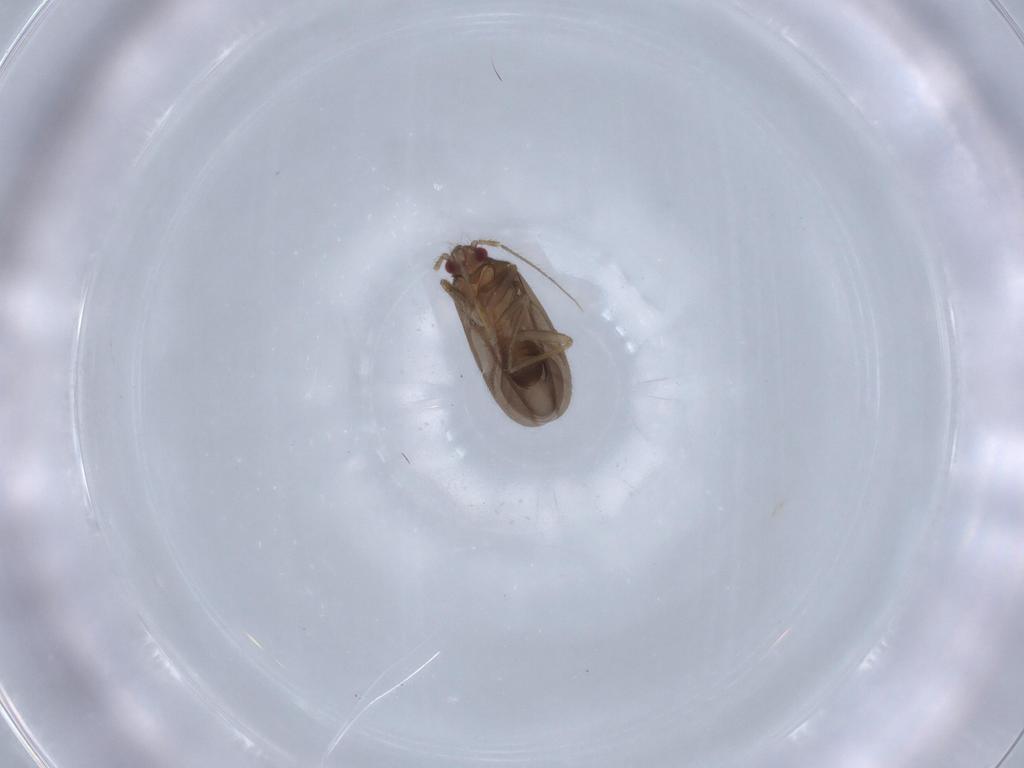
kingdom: Animalia
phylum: Arthropoda
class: Insecta
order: Hemiptera
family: Ceratocombidae
